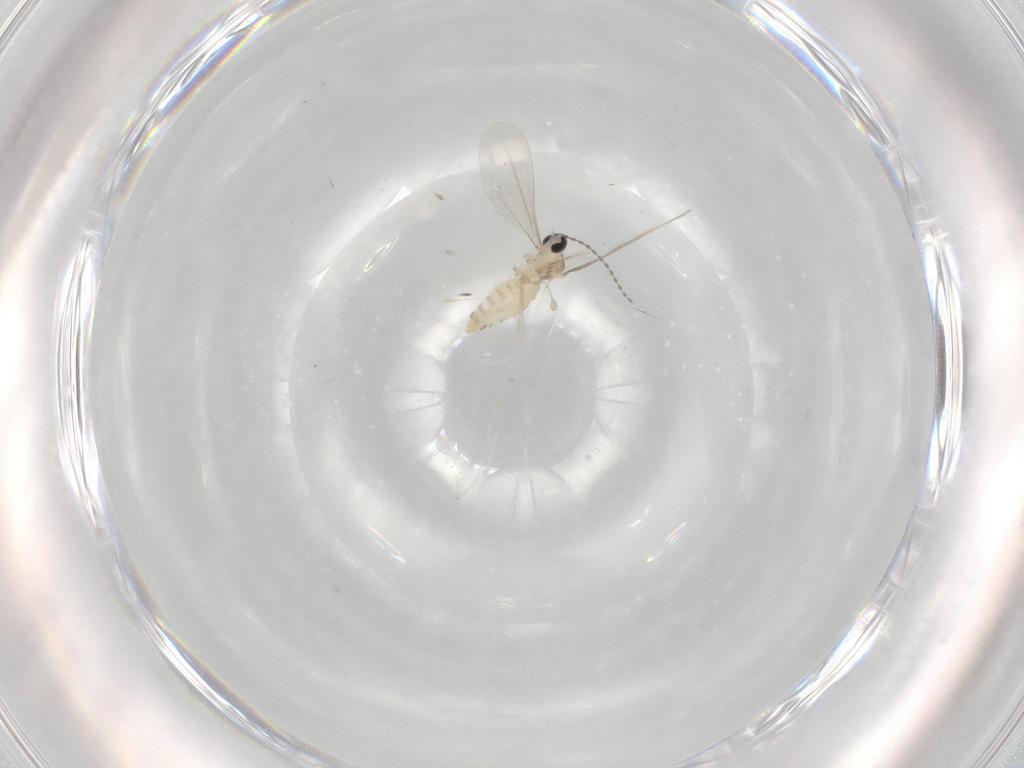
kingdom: Animalia
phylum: Arthropoda
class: Insecta
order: Diptera
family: Cecidomyiidae
